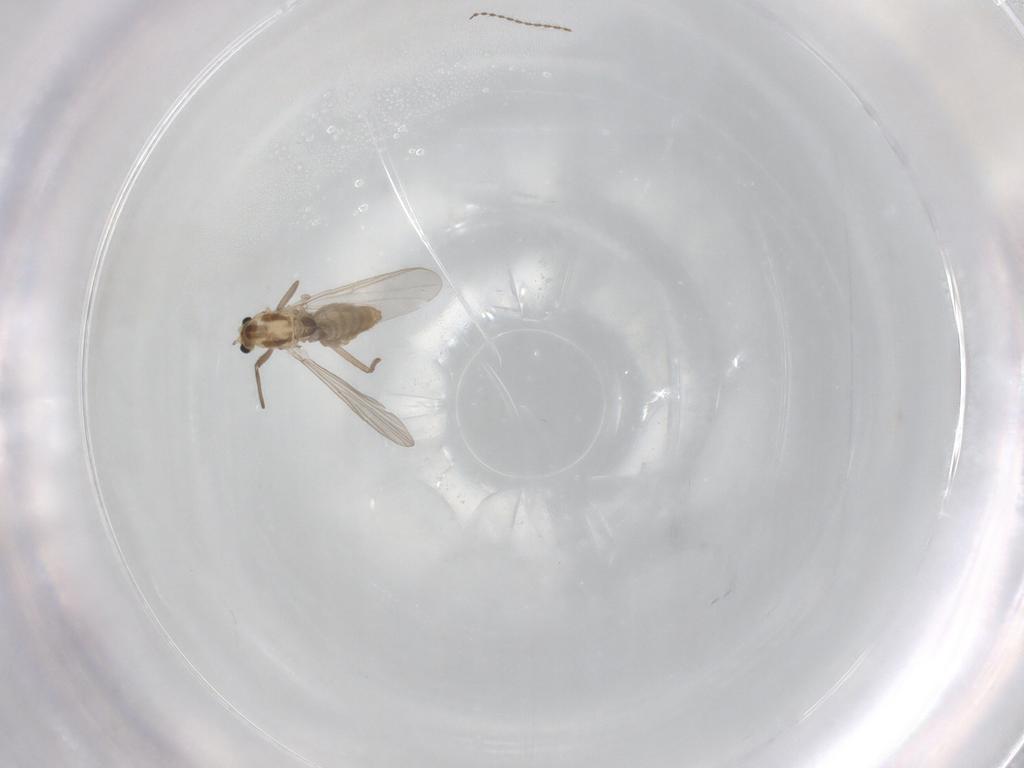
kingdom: Animalia
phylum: Arthropoda
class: Insecta
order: Diptera
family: Chironomidae
